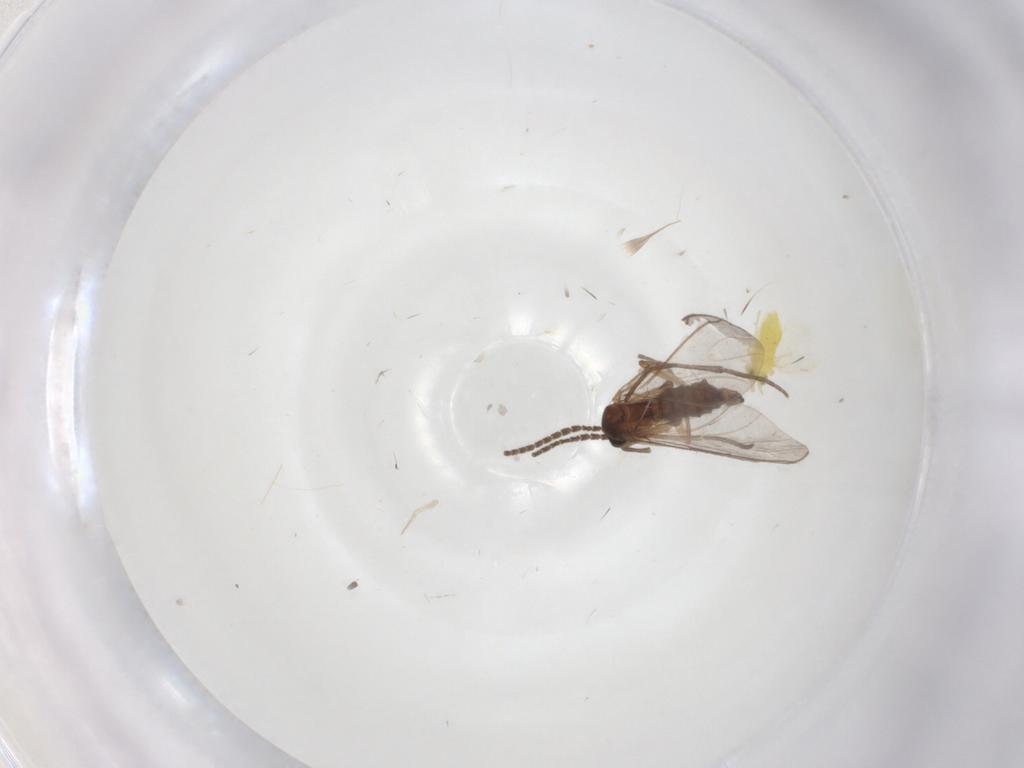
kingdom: Animalia
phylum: Arthropoda
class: Insecta
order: Diptera
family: Sciaridae
